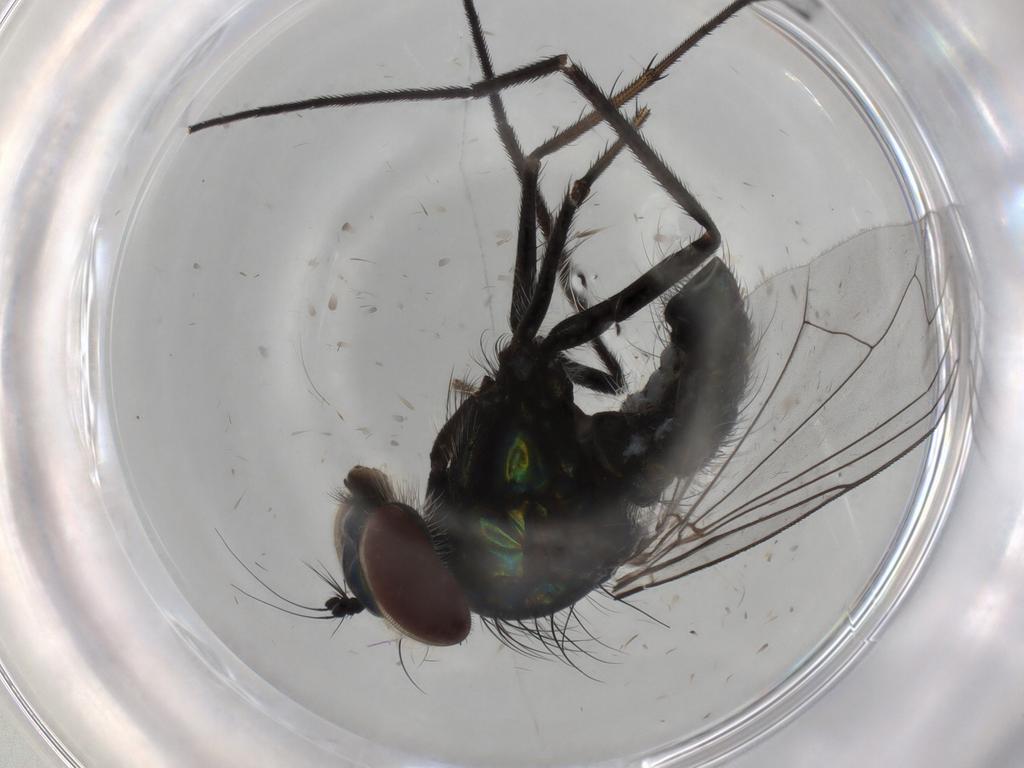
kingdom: Animalia
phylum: Arthropoda
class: Insecta
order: Diptera
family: Dolichopodidae
